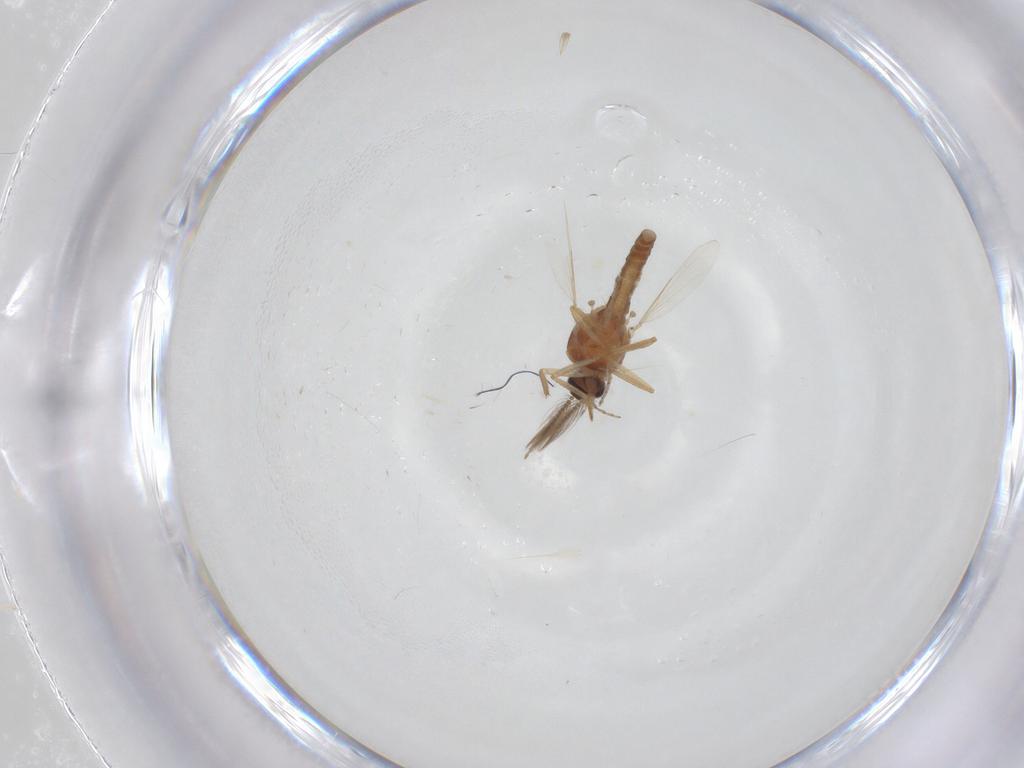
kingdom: Animalia
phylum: Arthropoda
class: Insecta
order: Diptera
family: Ceratopogonidae
